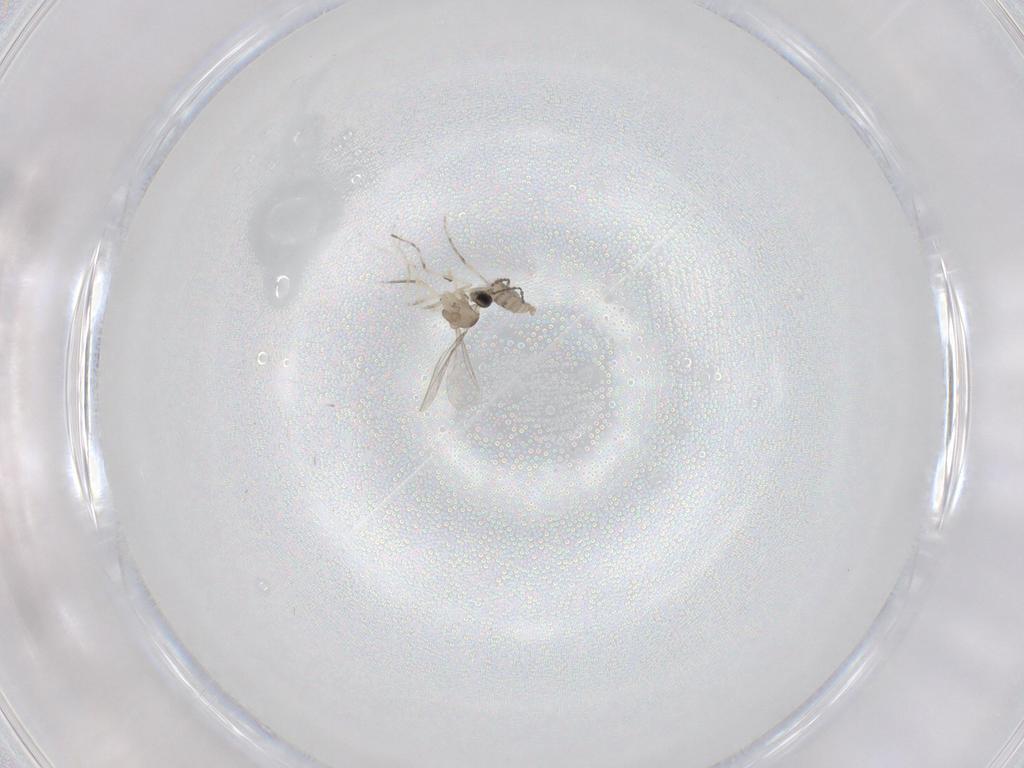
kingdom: Animalia
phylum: Arthropoda
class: Insecta
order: Diptera
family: Cecidomyiidae
